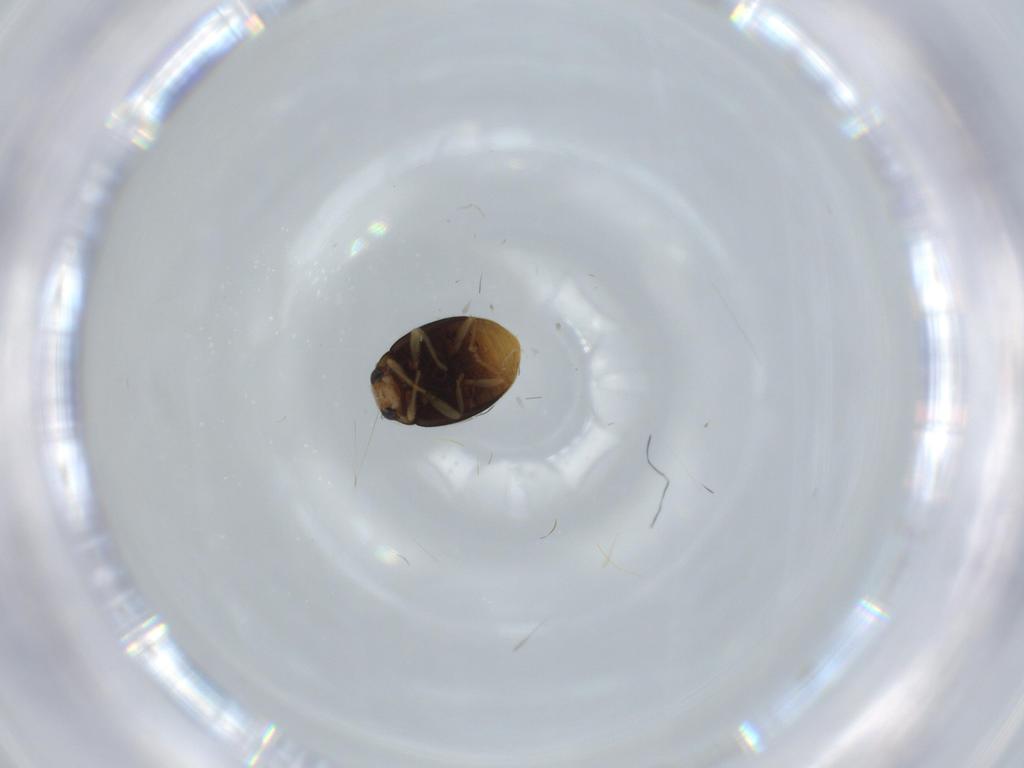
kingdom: Animalia
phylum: Arthropoda
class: Insecta
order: Coleoptera
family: Coccinellidae
